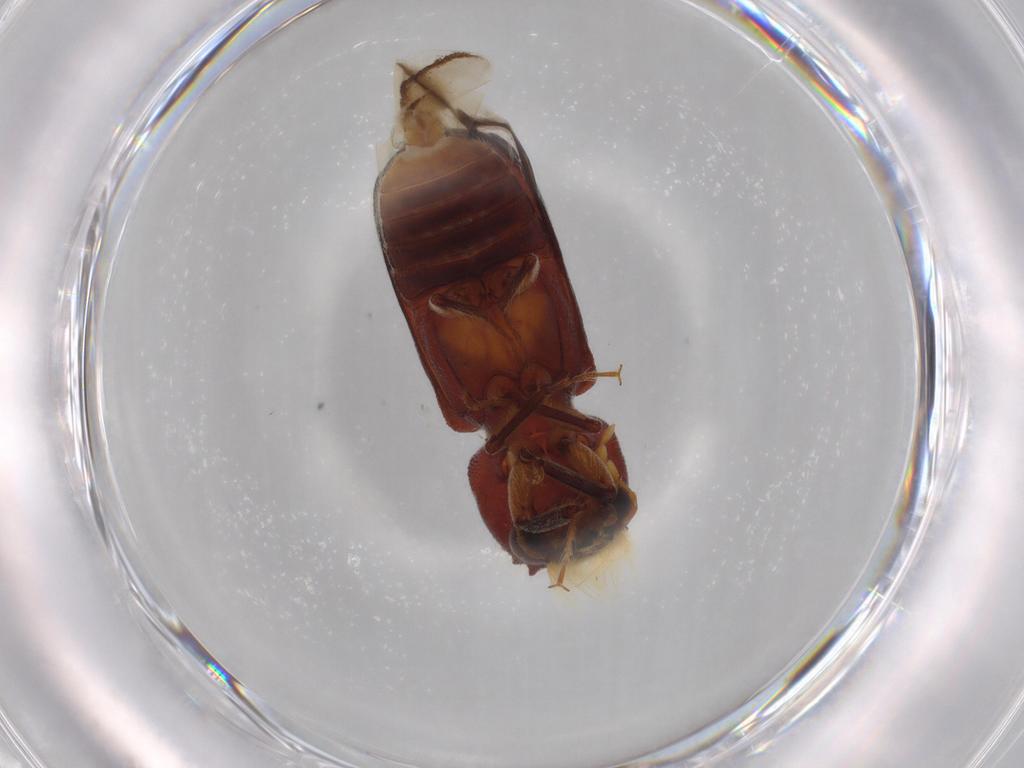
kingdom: Animalia
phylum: Arthropoda
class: Insecta
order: Coleoptera
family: Bostrichidae
